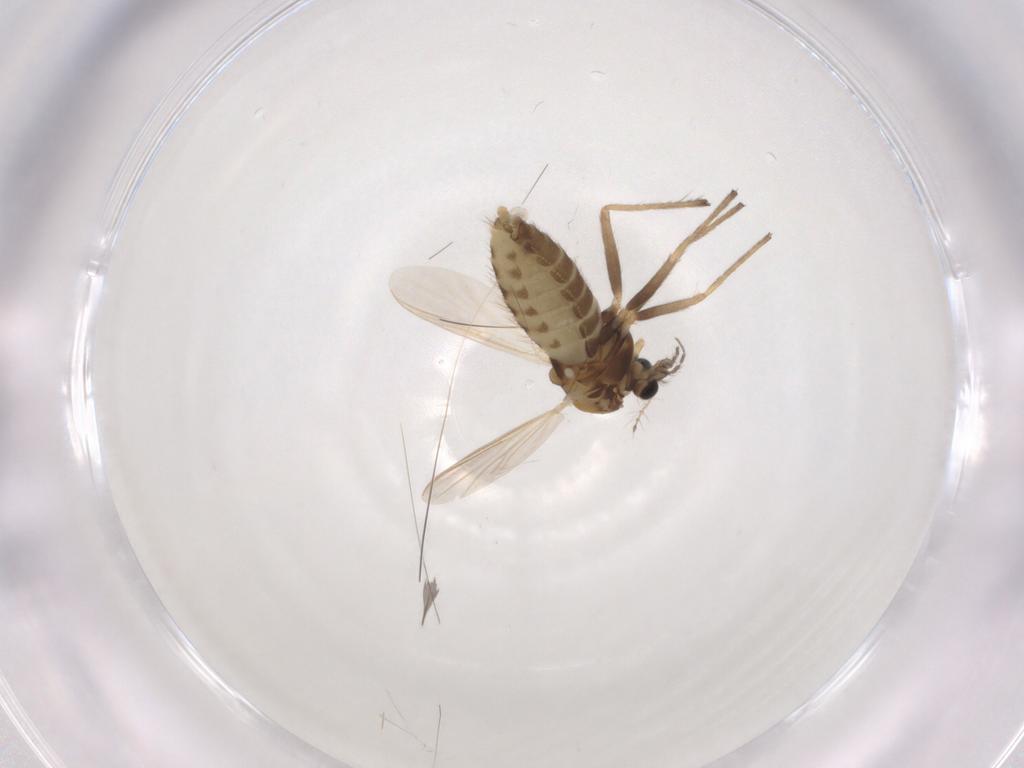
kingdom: Animalia
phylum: Arthropoda
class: Insecta
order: Diptera
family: Chironomidae
